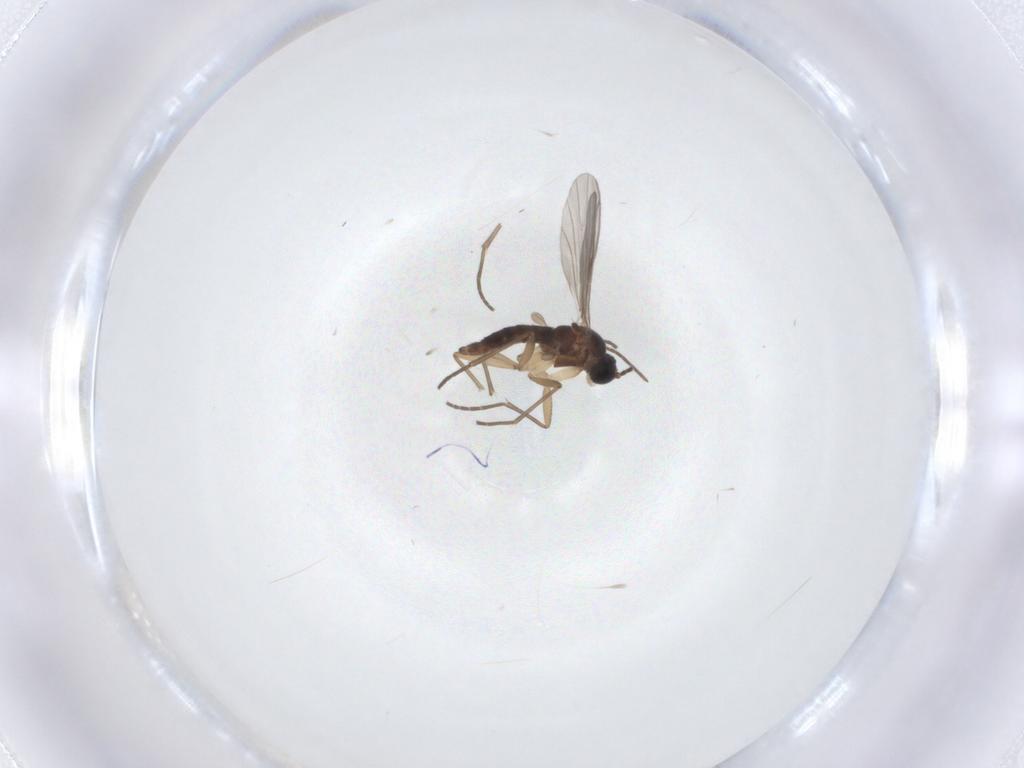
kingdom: Animalia
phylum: Arthropoda
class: Insecta
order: Diptera
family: Sciaridae
